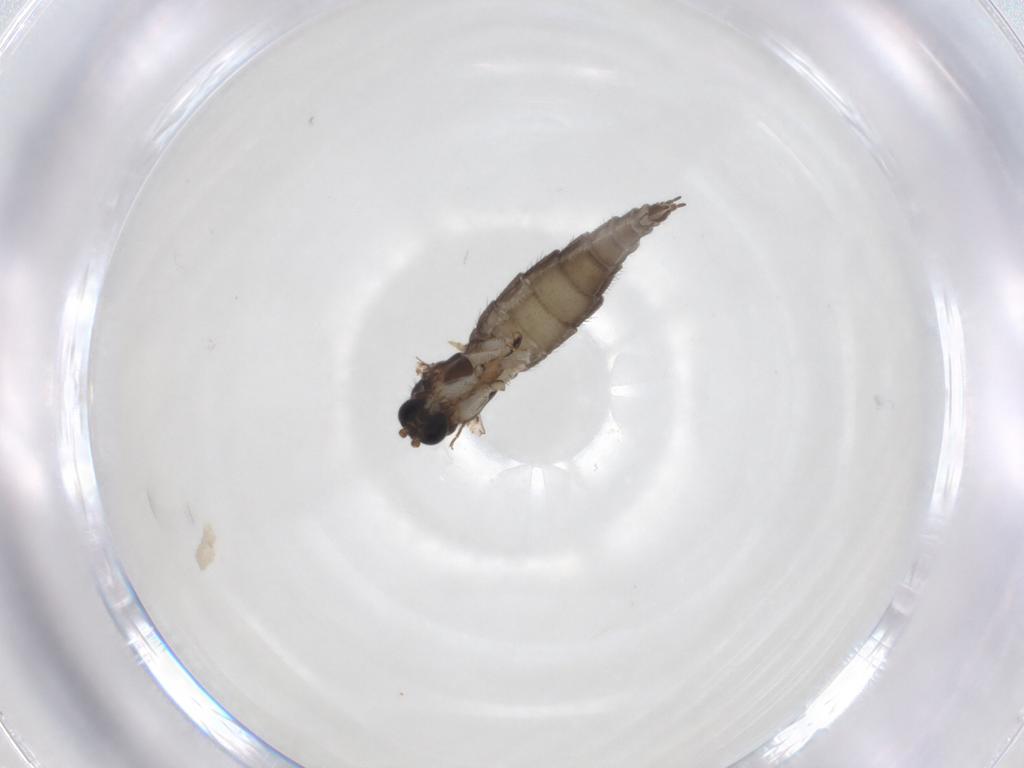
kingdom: Animalia
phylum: Arthropoda
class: Insecta
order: Diptera
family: Sciaridae
